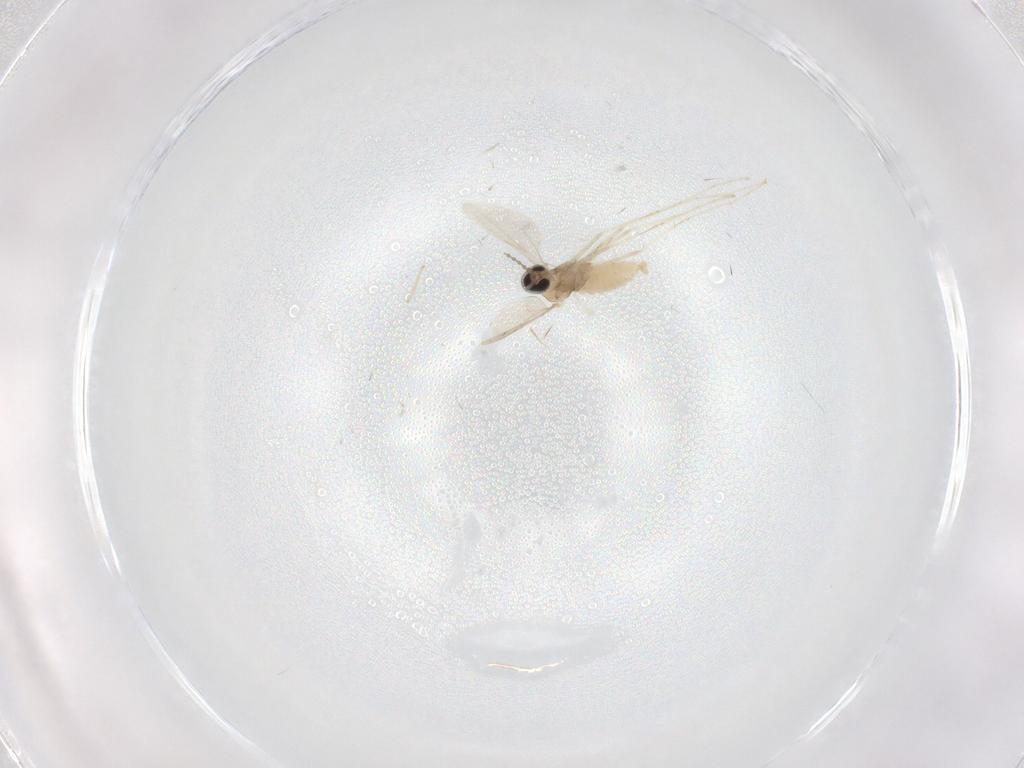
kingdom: Animalia
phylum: Arthropoda
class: Insecta
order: Diptera
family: Cecidomyiidae
